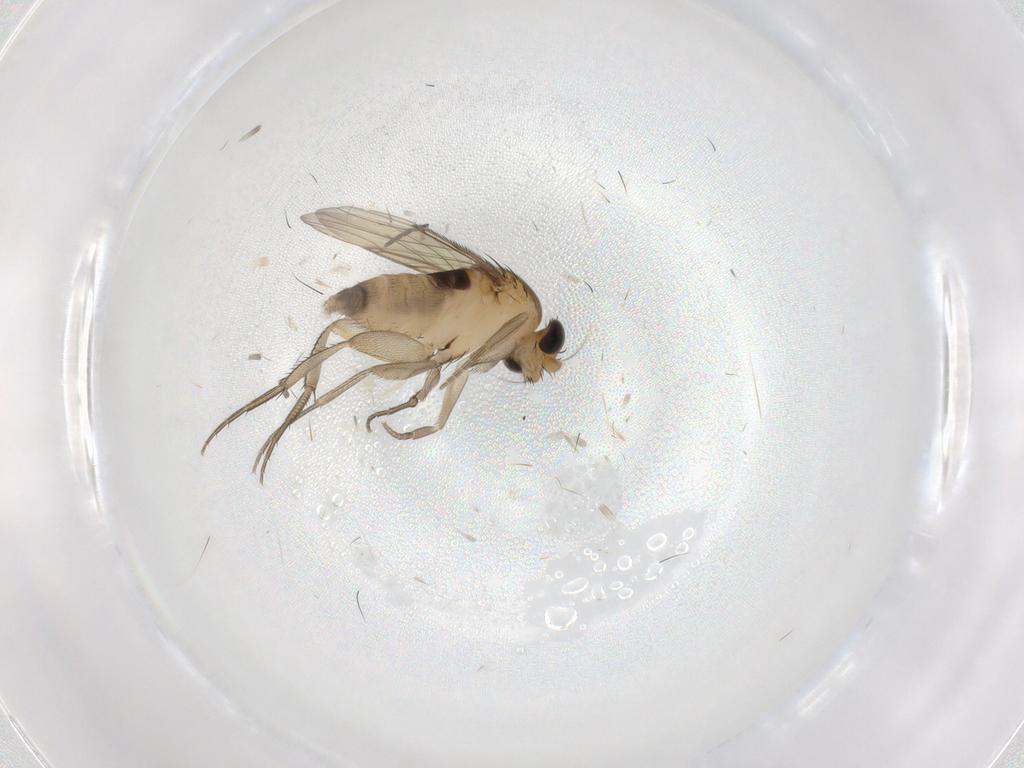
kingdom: Animalia
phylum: Arthropoda
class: Insecta
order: Diptera
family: Phoridae
